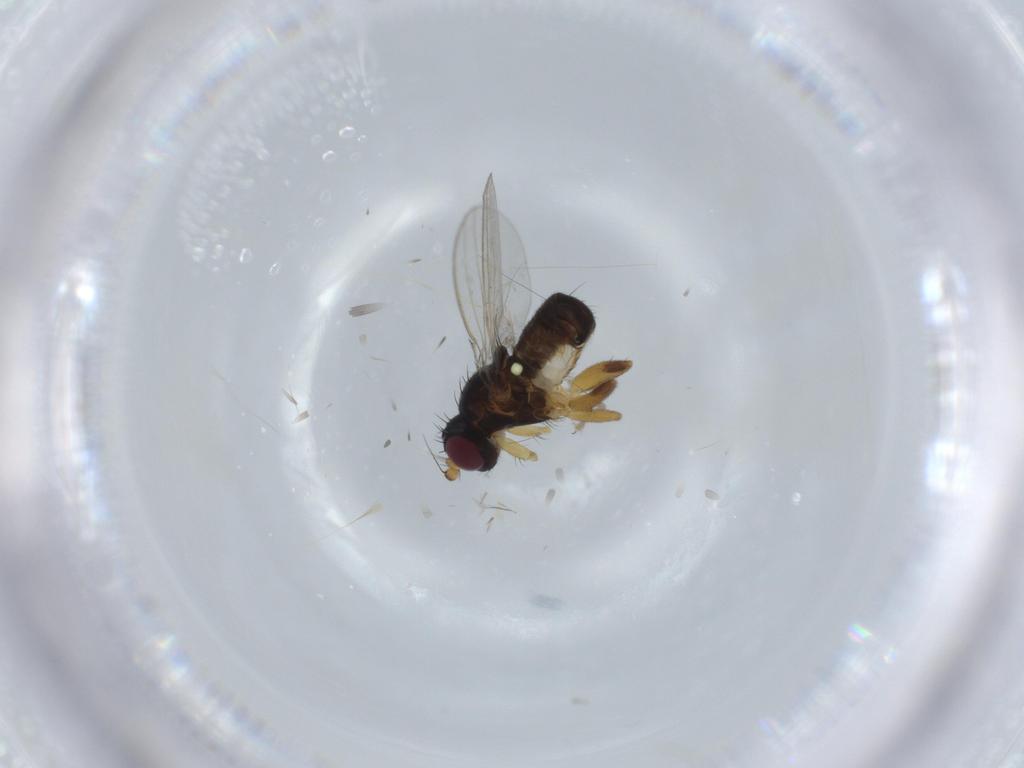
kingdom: Animalia
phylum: Arthropoda
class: Insecta
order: Diptera
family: Cypselosomatidae
